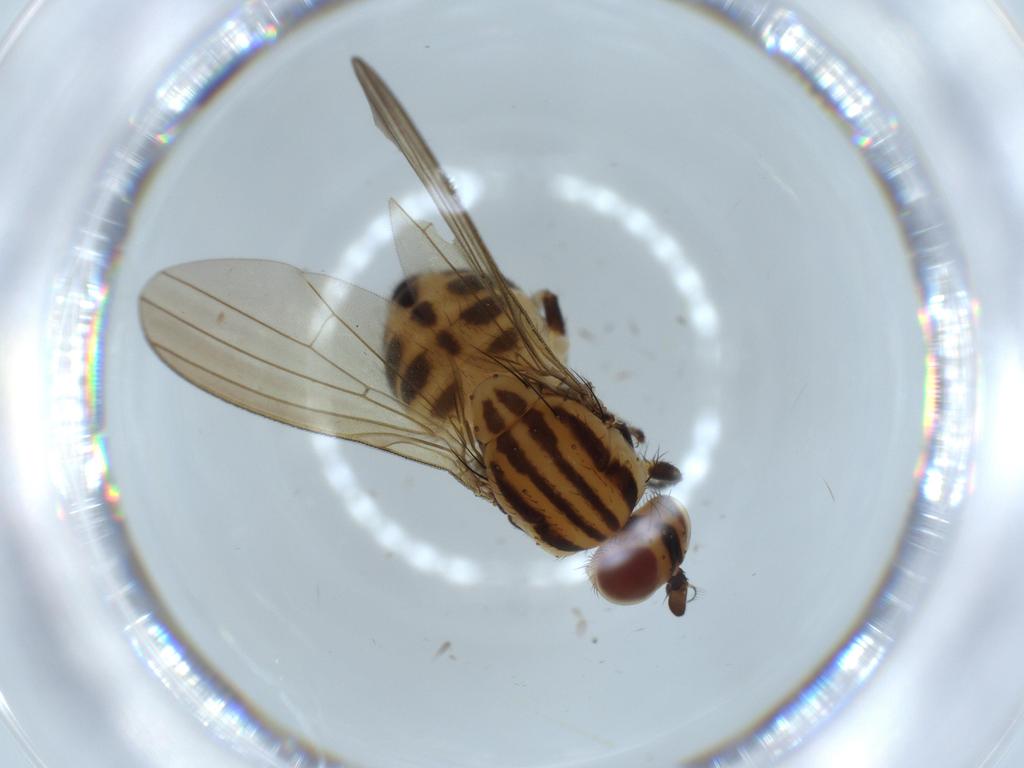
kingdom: Animalia
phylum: Arthropoda
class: Insecta
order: Diptera
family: Lauxaniidae
